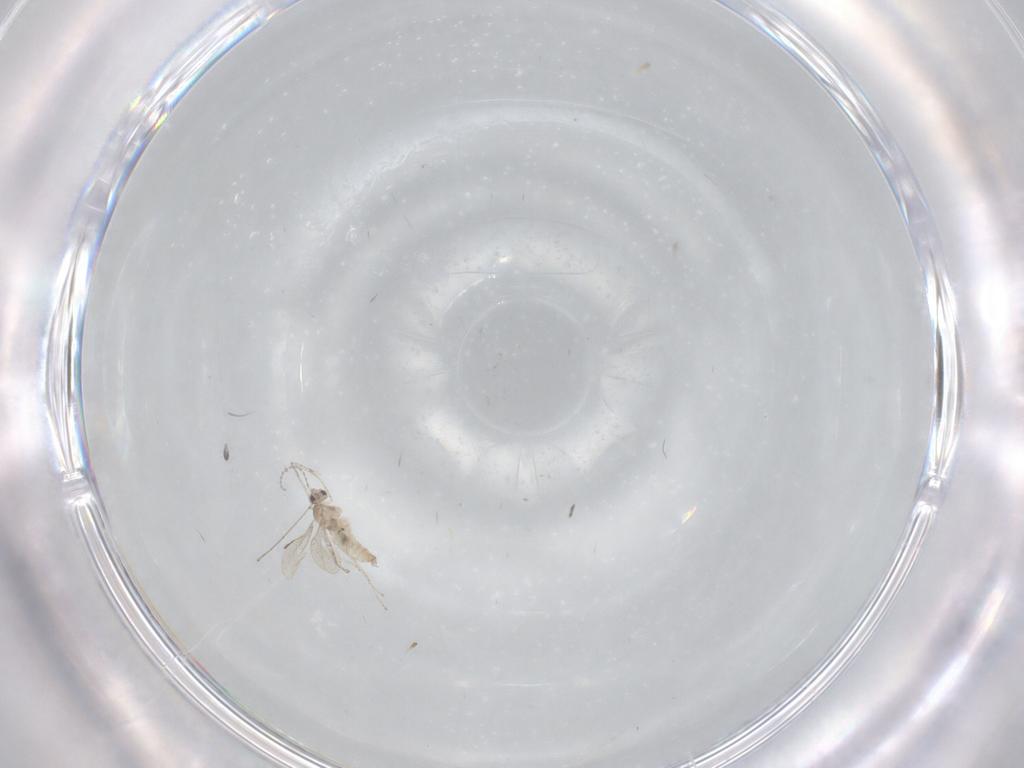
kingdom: Animalia
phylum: Arthropoda
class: Insecta
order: Diptera
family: Cecidomyiidae
